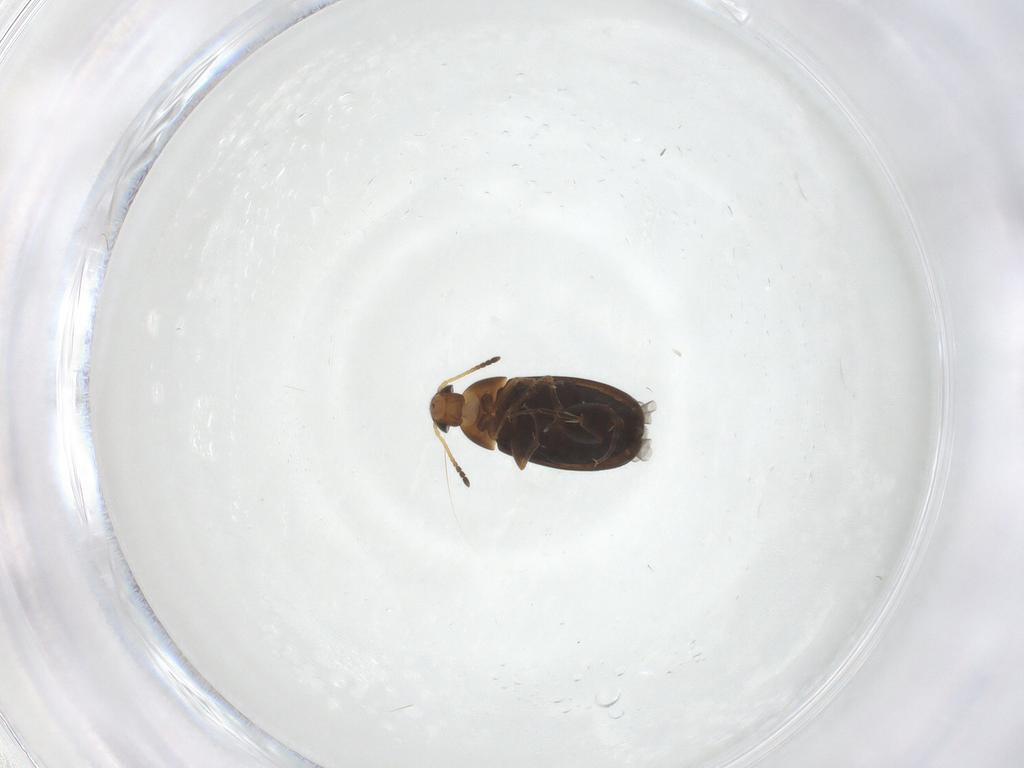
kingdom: Animalia
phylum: Arthropoda
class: Insecta
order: Coleoptera
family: Scraptiidae
